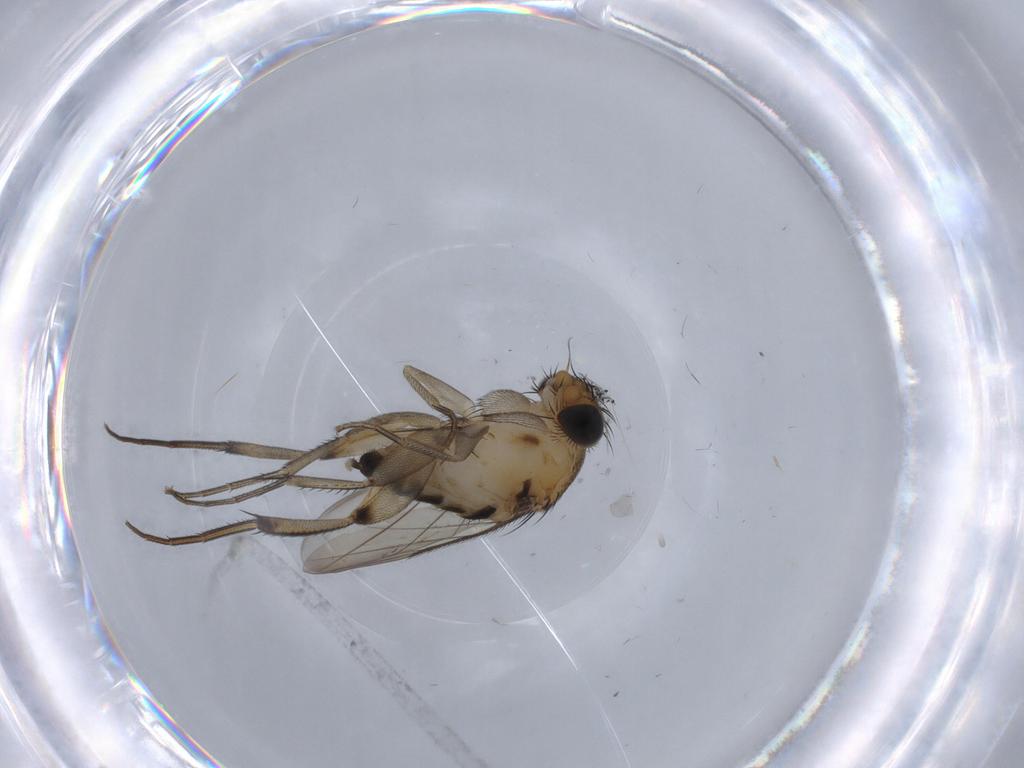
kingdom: Animalia
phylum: Arthropoda
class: Insecta
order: Diptera
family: Phoridae
